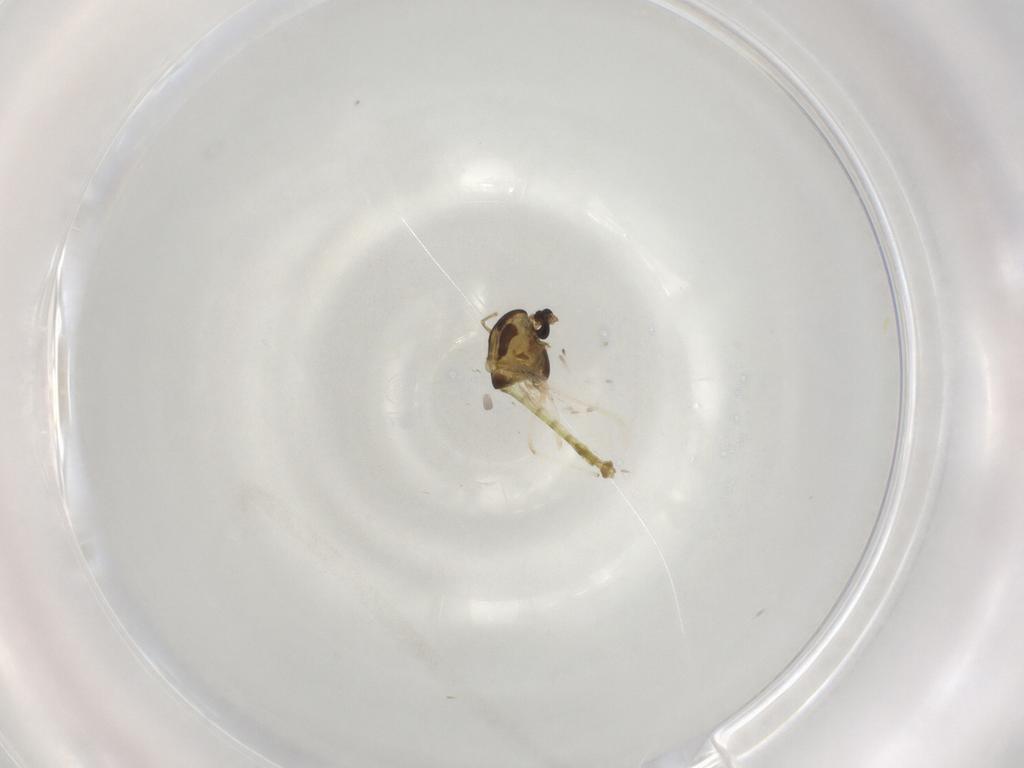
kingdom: Animalia
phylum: Arthropoda
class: Insecta
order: Diptera
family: Chironomidae
